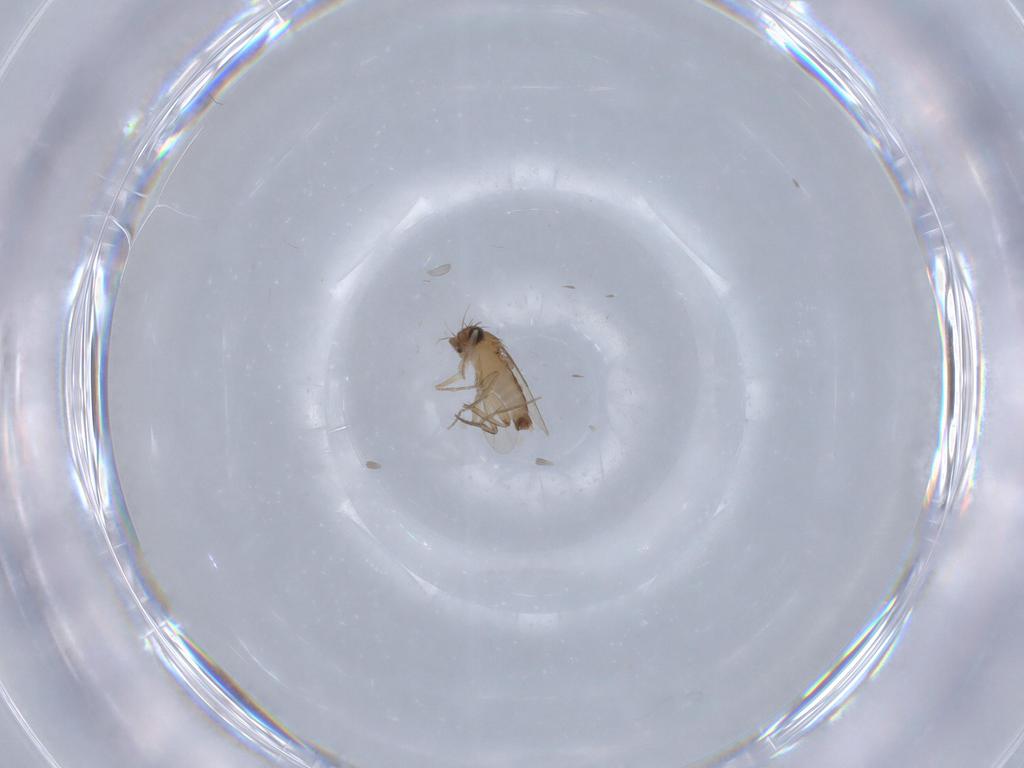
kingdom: Animalia
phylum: Arthropoda
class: Insecta
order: Diptera
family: Phoridae
